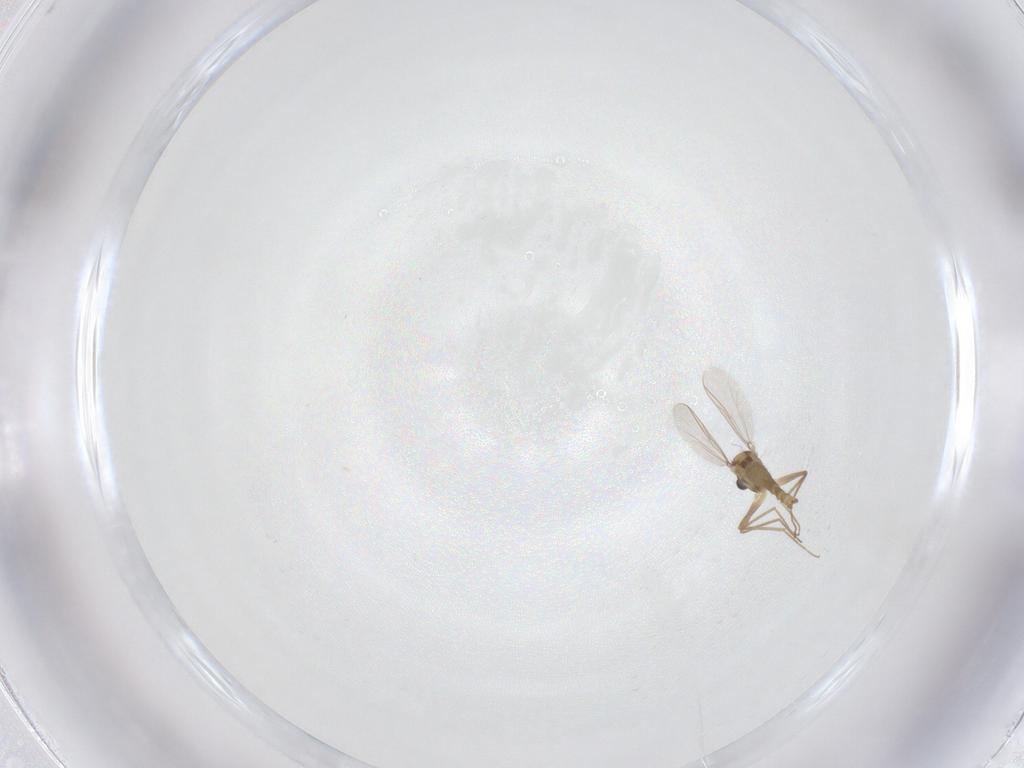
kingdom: Animalia
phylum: Arthropoda
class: Insecta
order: Diptera
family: Chironomidae
